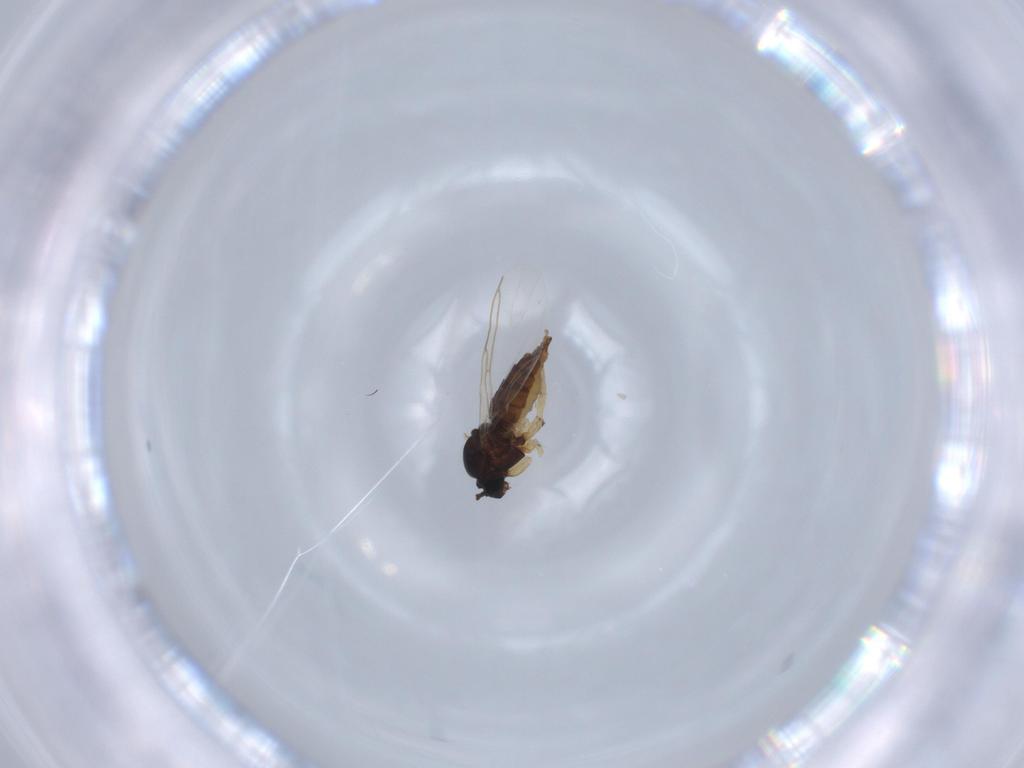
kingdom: Animalia
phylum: Arthropoda
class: Insecta
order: Diptera
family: Sciaridae
